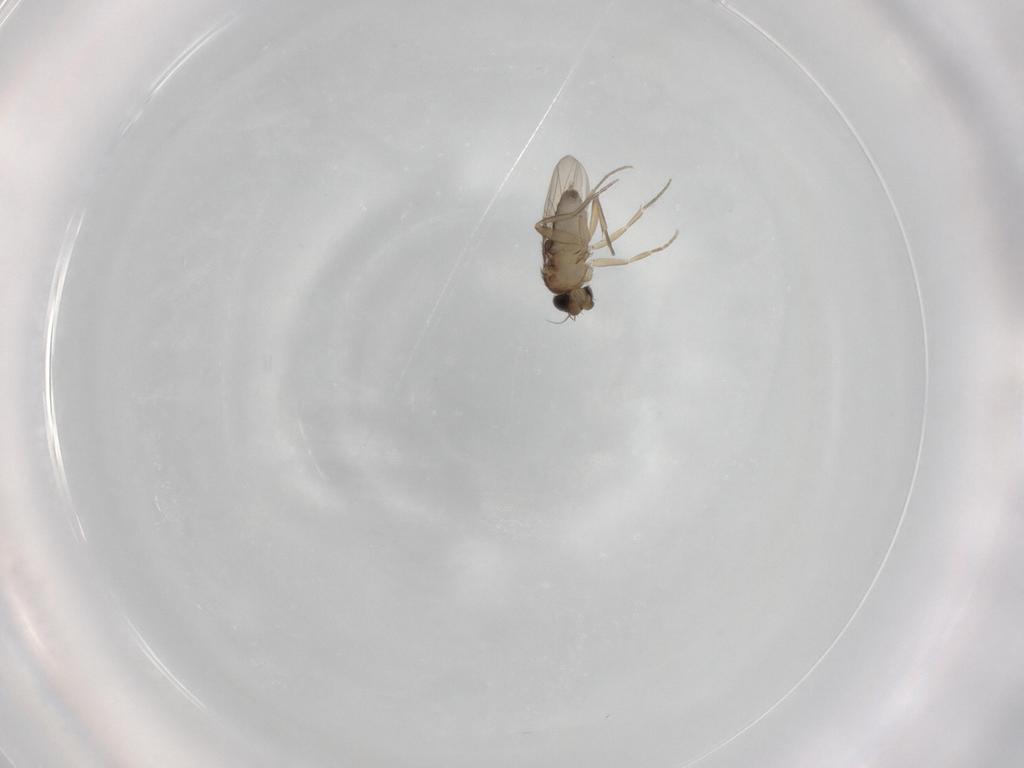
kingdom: Animalia
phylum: Arthropoda
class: Insecta
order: Diptera
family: Phoridae
